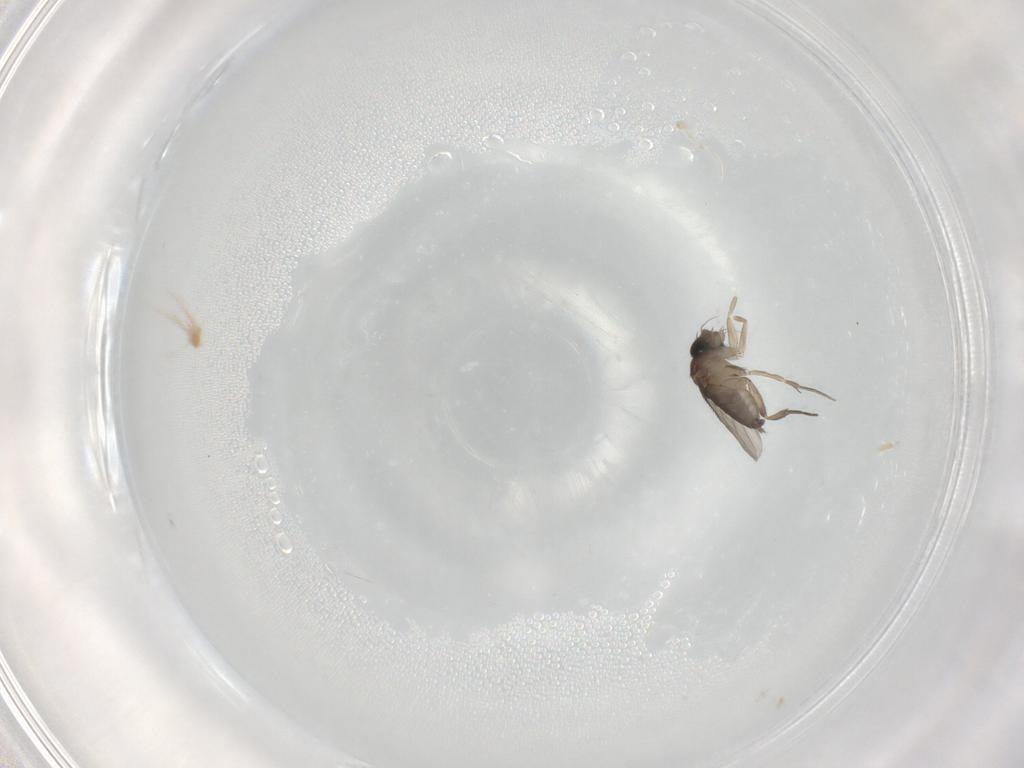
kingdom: Animalia
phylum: Arthropoda
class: Insecta
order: Diptera
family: Phoridae
